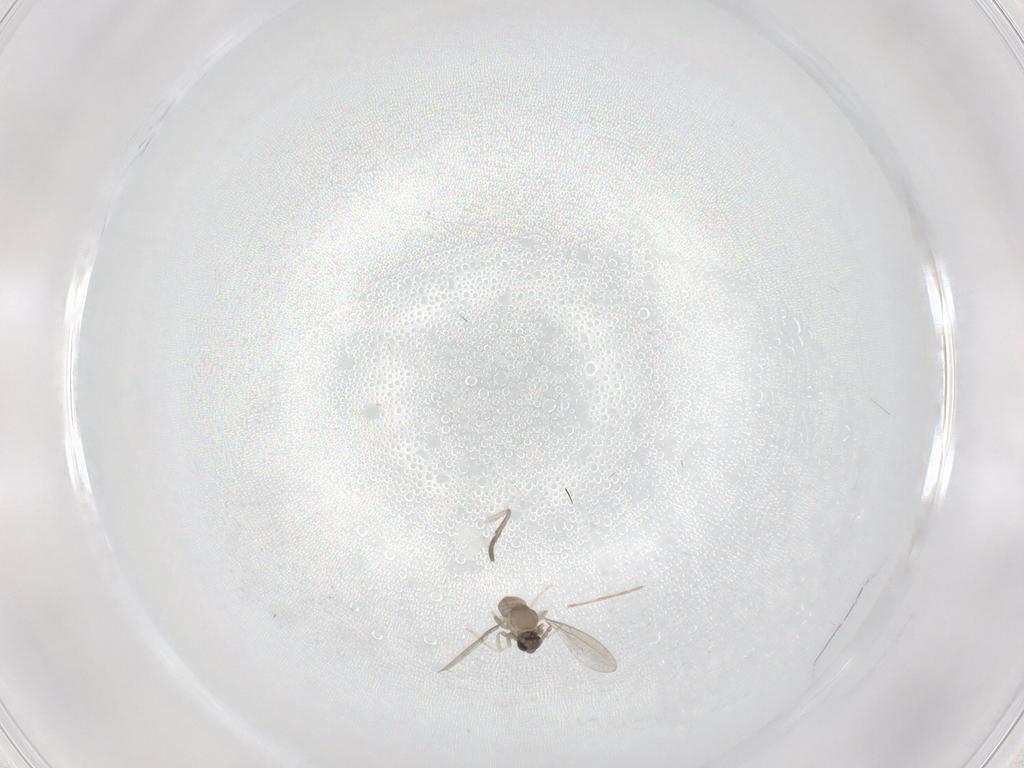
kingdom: Animalia
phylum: Arthropoda
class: Insecta
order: Diptera
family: Cecidomyiidae
